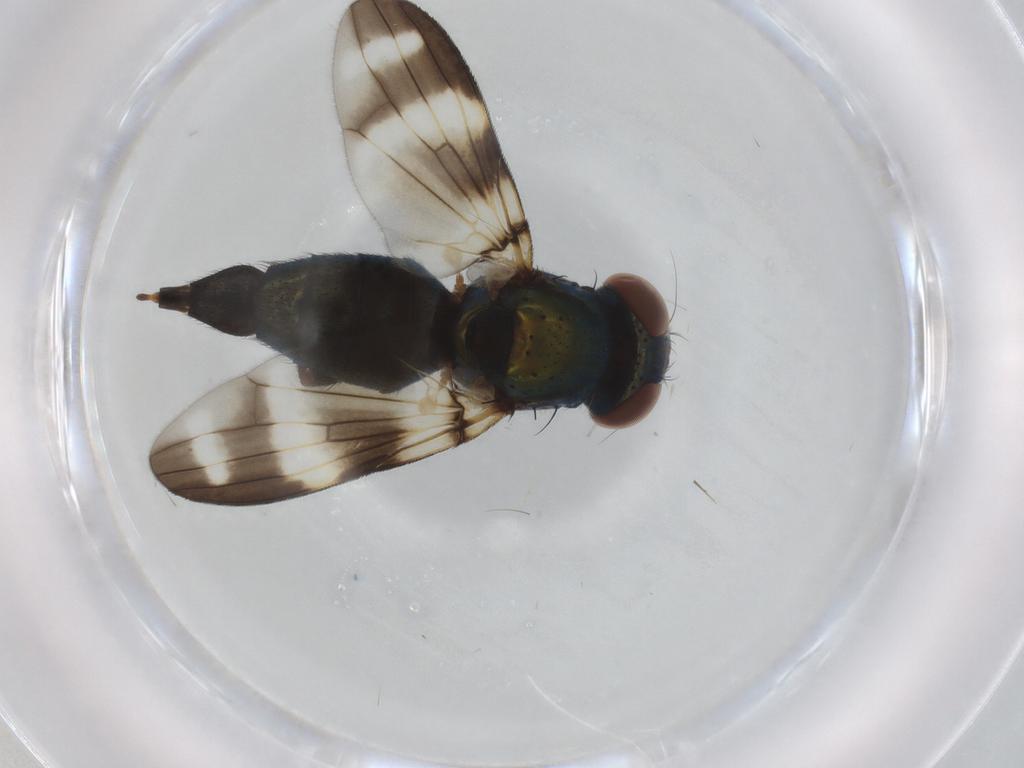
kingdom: Animalia
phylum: Arthropoda
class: Insecta
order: Diptera
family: Ulidiidae
